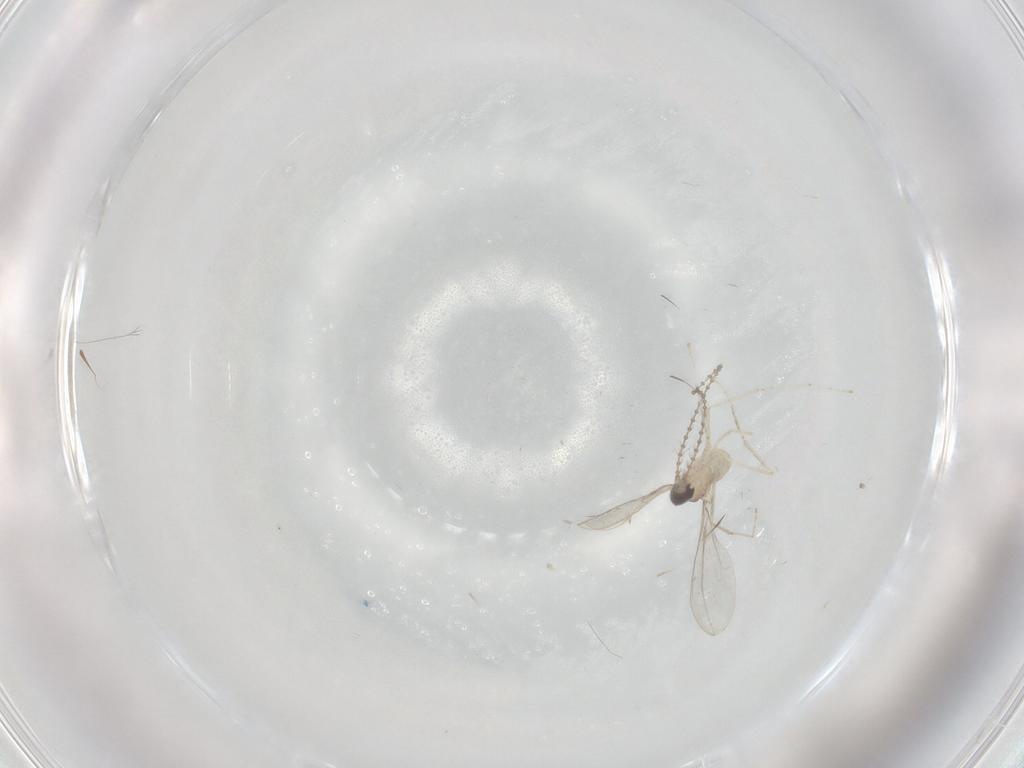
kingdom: Animalia
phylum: Arthropoda
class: Insecta
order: Diptera
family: Cecidomyiidae
